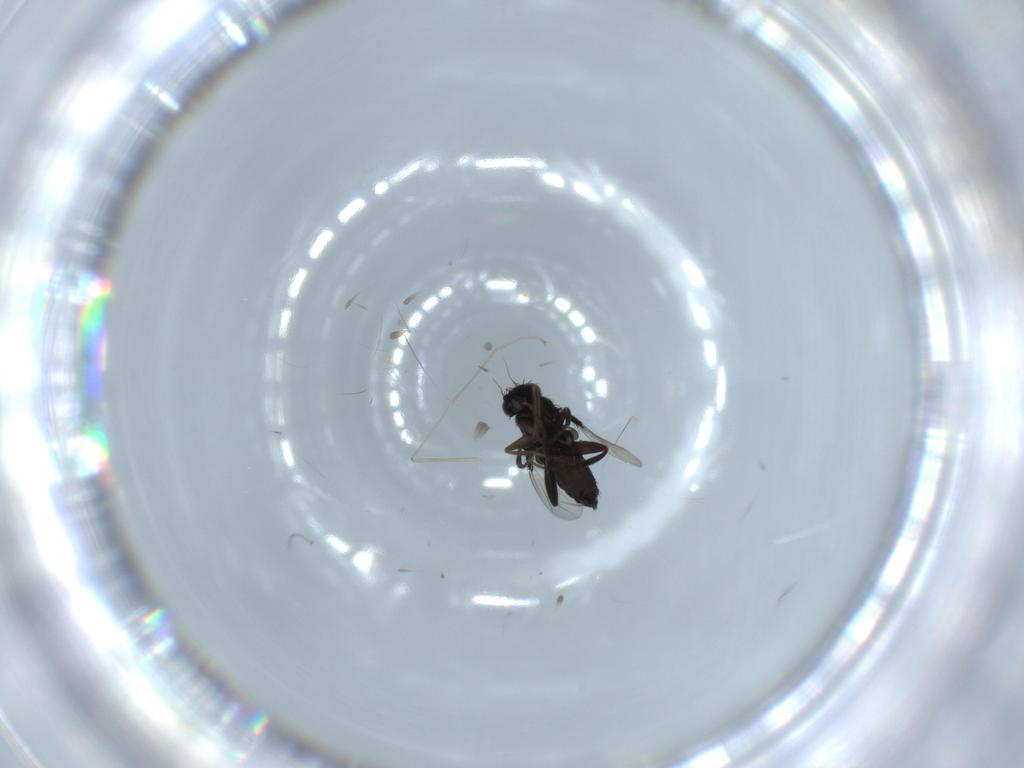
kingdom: Animalia
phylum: Arthropoda
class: Insecta
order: Diptera
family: Phoridae
